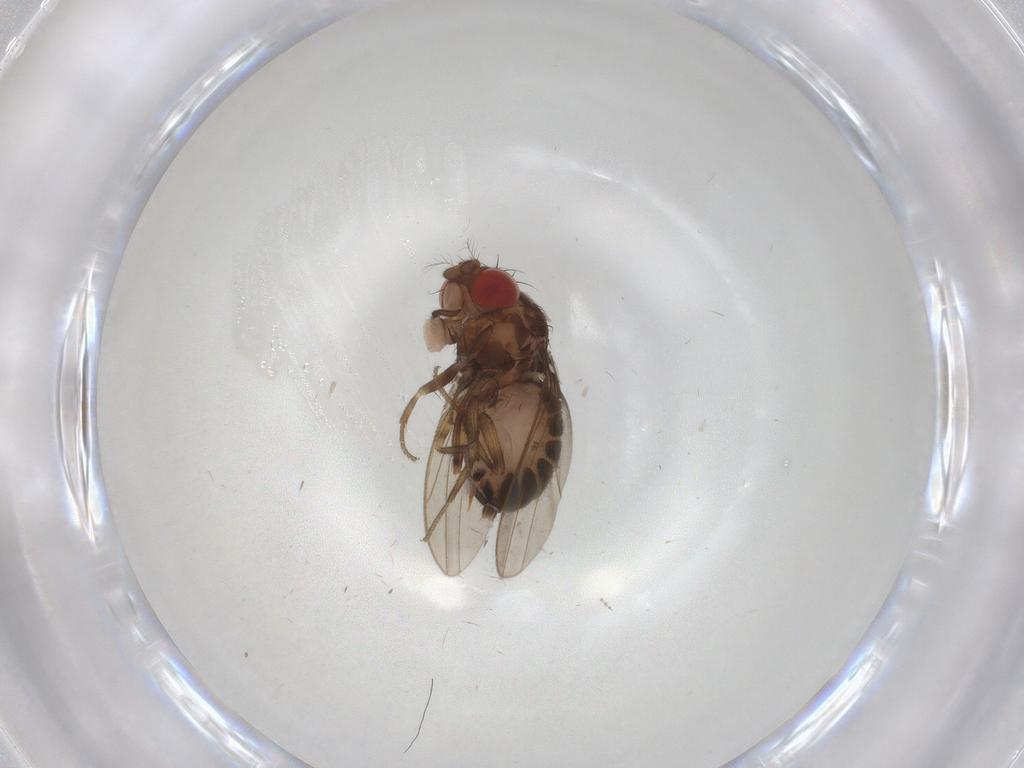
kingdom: Animalia
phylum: Arthropoda
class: Insecta
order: Diptera
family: Drosophilidae
